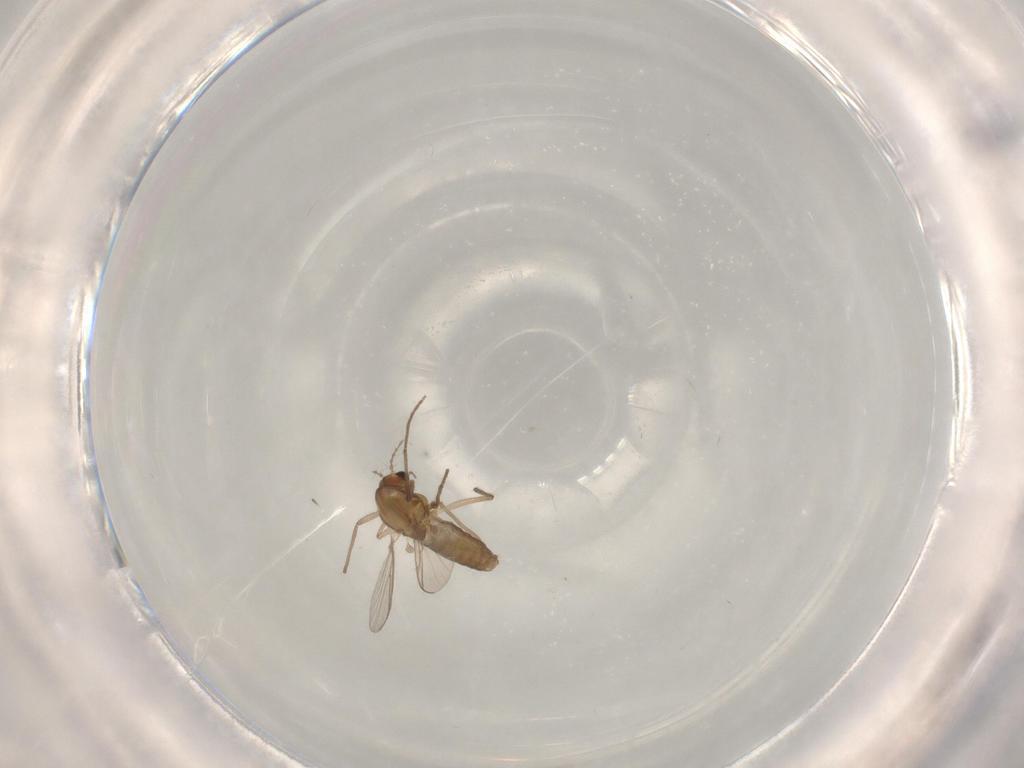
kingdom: Animalia
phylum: Arthropoda
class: Insecta
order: Diptera
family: Chironomidae
